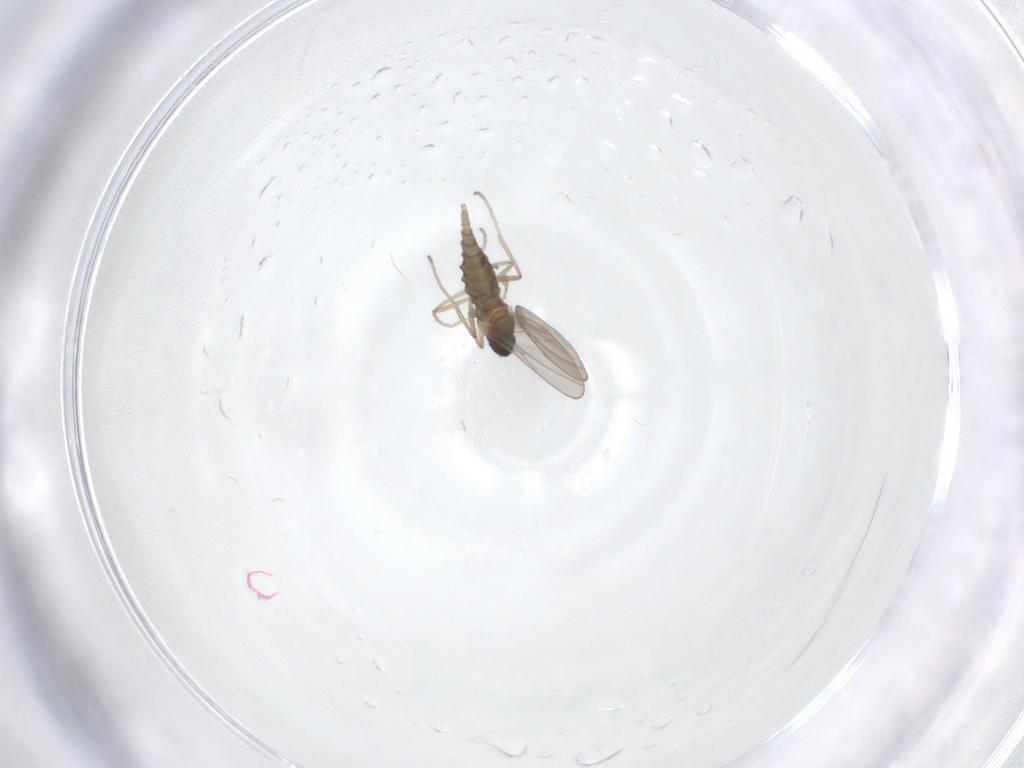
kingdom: Animalia
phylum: Arthropoda
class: Insecta
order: Diptera
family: Cecidomyiidae
